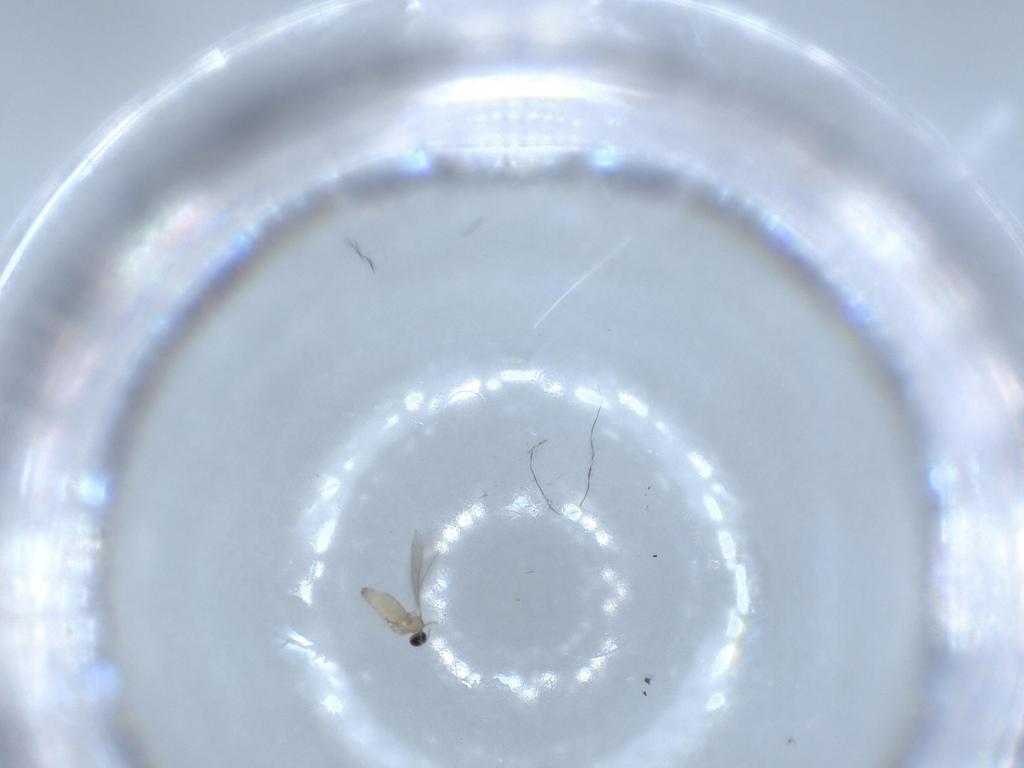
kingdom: Animalia
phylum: Arthropoda
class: Insecta
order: Diptera
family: Cecidomyiidae
